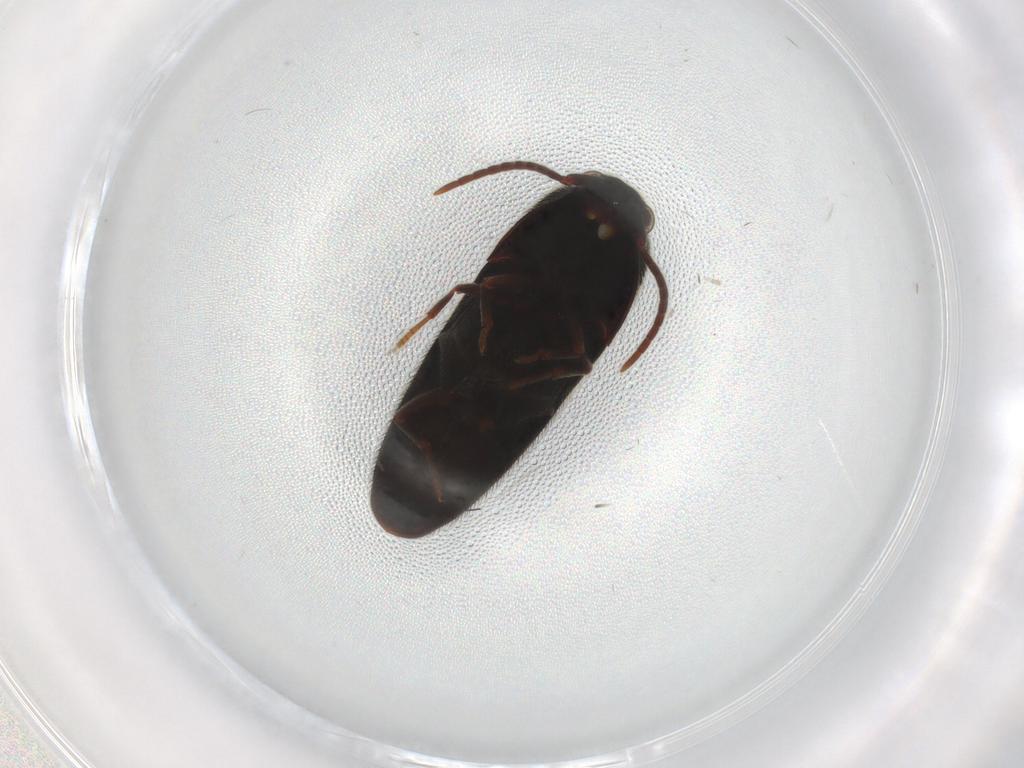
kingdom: Animalia
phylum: Arthropoda
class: Insecta
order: Coleoptera
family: Eucnemidae
